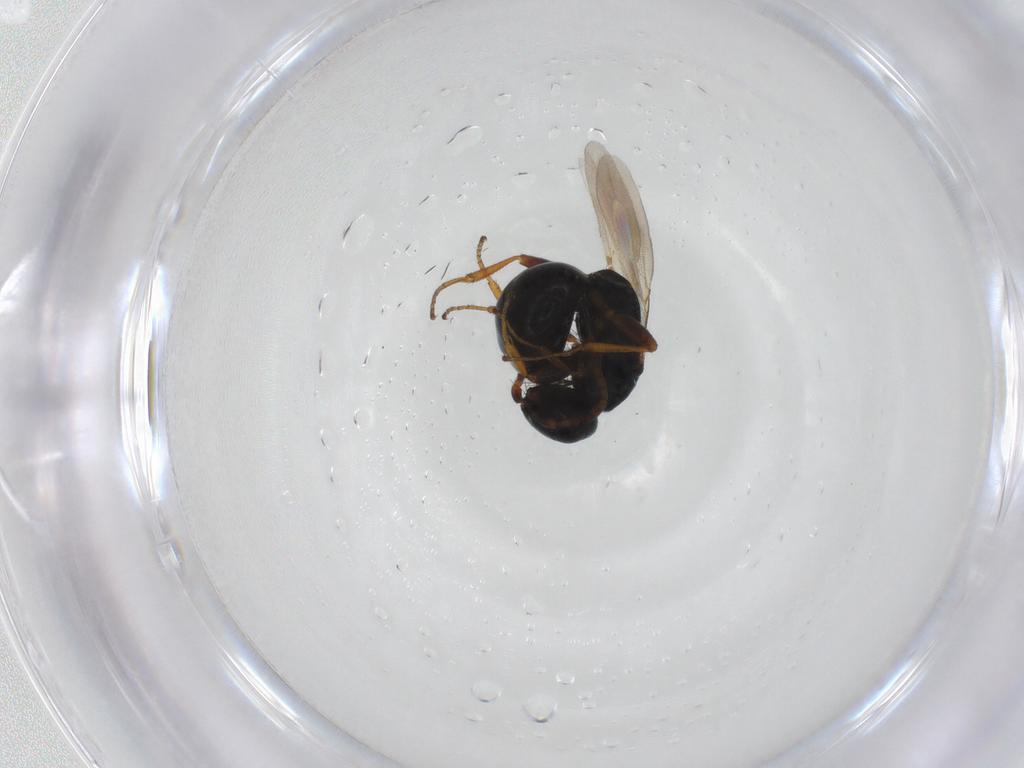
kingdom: Animalia
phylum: Arthropoda
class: Insecta
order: Hymenoptera
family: Bethylidae
